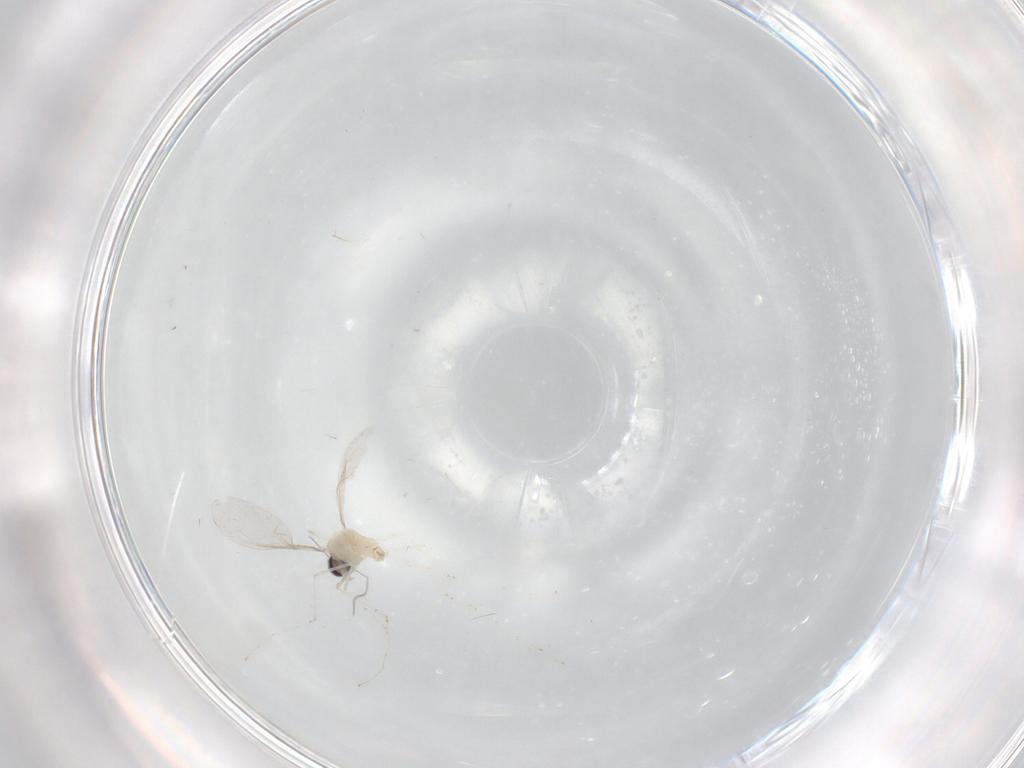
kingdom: Animalia
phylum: Arthropoda
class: Insecta
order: Diptera
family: Cecidomyiidae
